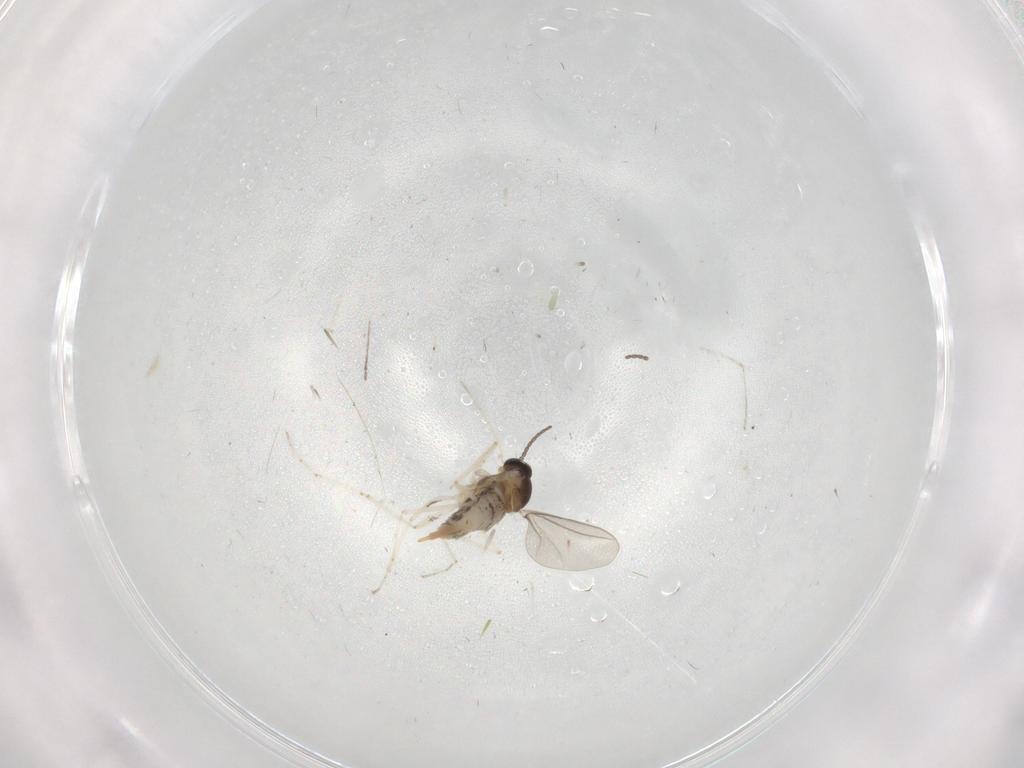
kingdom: Animalia
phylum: Arthropoda
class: Insecta
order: Diptera
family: Cecidomyiidae
